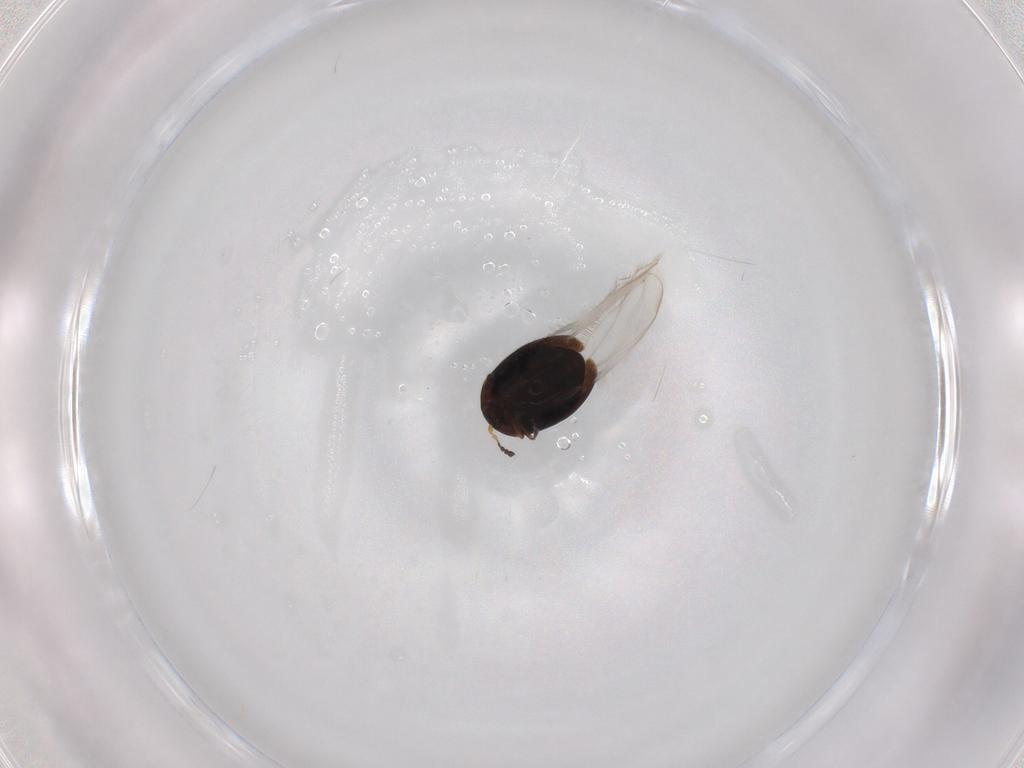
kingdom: Animalia
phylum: Arthropoda
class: Insecta
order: Coleoptera
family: Corylophidae
